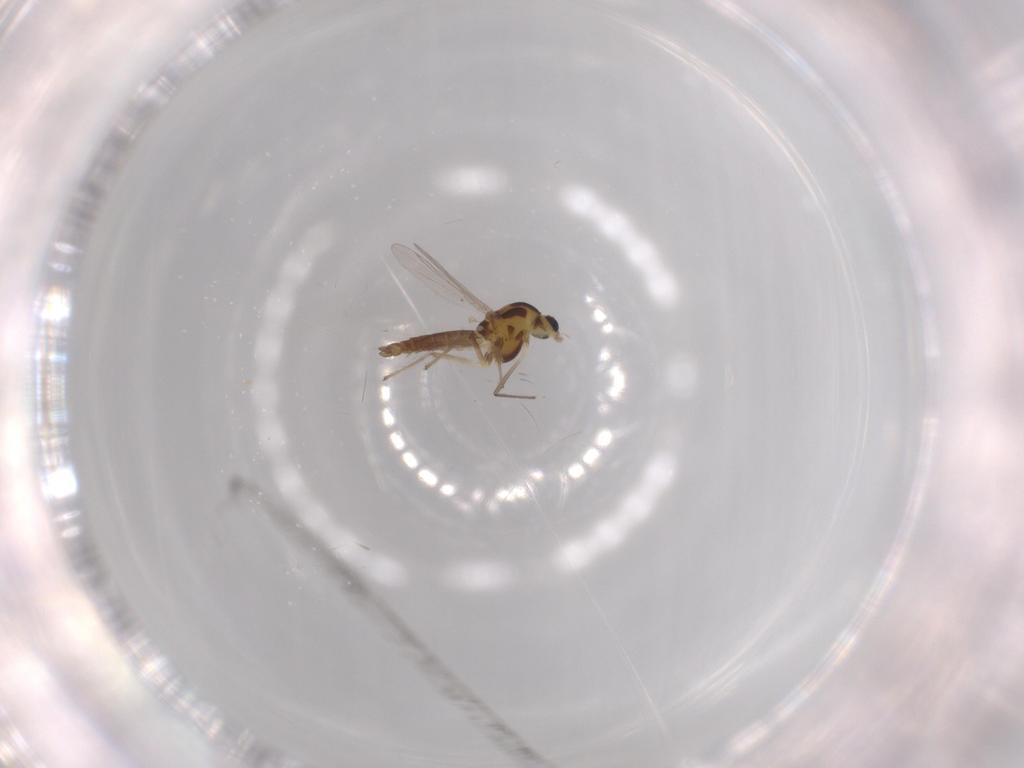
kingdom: Animalia
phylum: Arthropoda
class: Insecta
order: Diptera
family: Chironomidae
